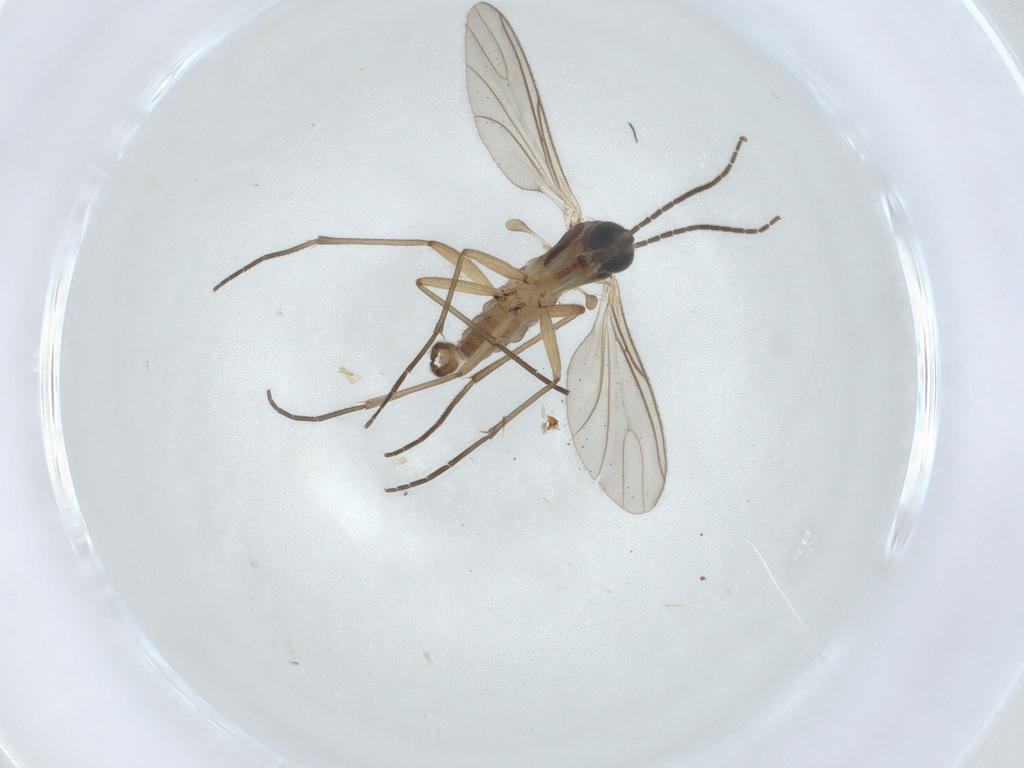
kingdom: Animalia
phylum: Arthropoda
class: Insecta
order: Diptera
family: Sciaridae
